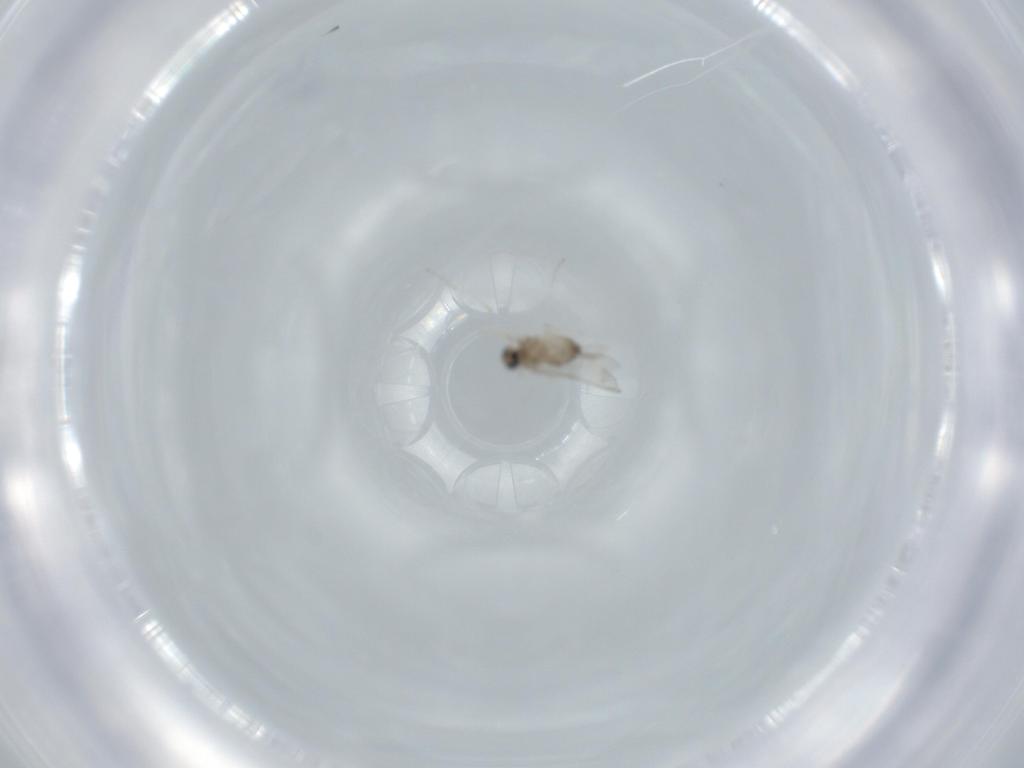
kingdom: Animalia
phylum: Arthropoda
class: Insecta
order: Diptera
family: Cecidomyiidae
